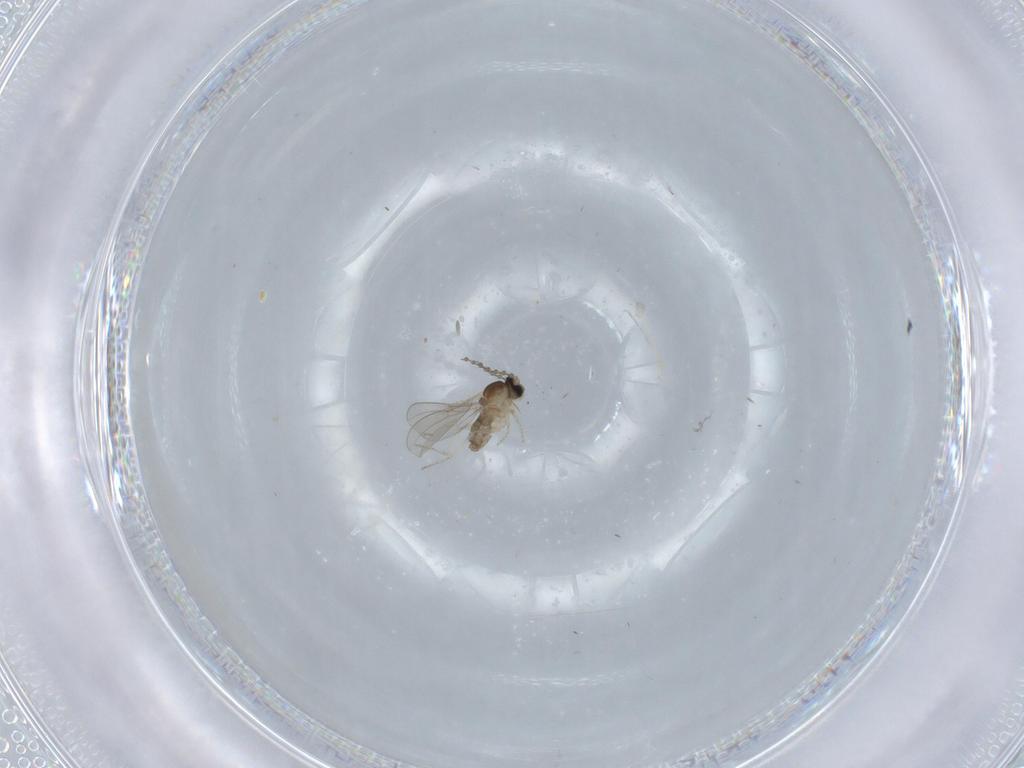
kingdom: Animalia
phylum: Arthropoda
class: Insecta
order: Diptera
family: Cecidomyiidae
